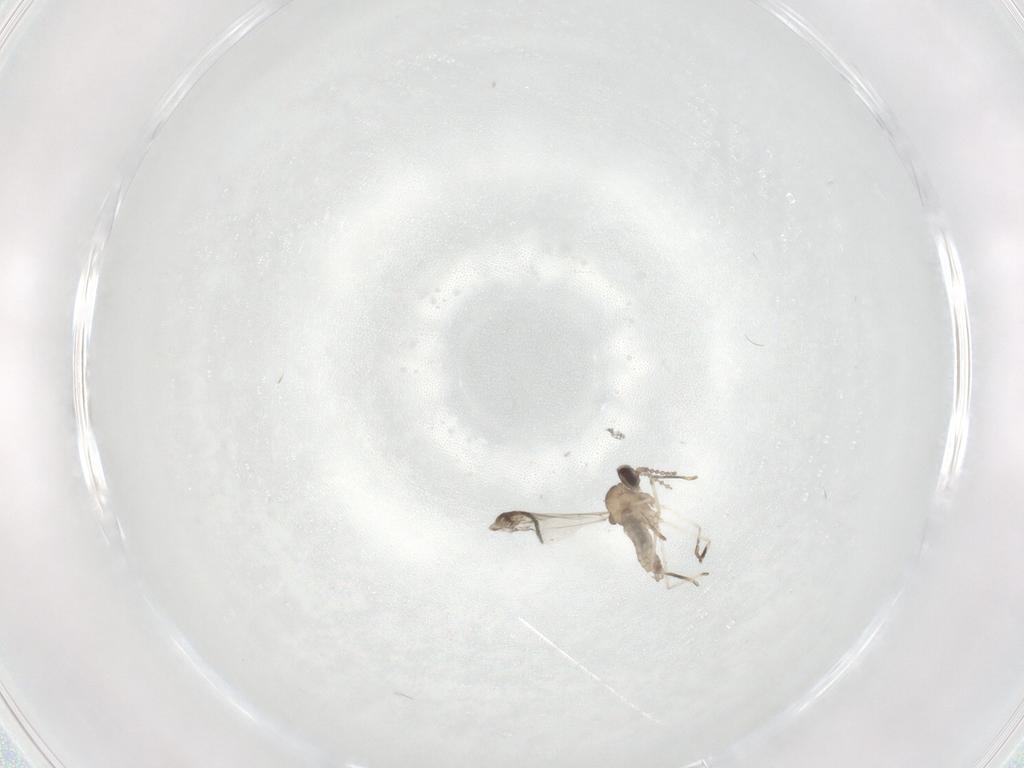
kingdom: Animalia
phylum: Arthropoda
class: Insecta
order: Diptera
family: Cecidomyiidae
